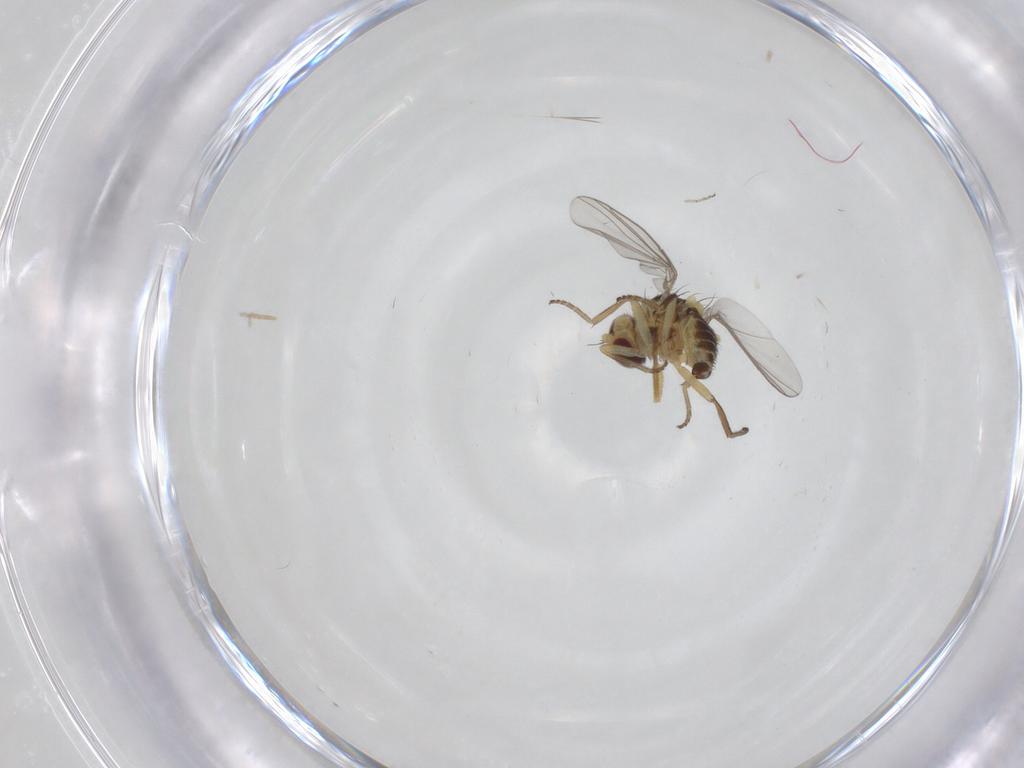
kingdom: Animalia
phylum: Arthropoda
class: Insecta
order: Diptera
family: Agromyzidae
